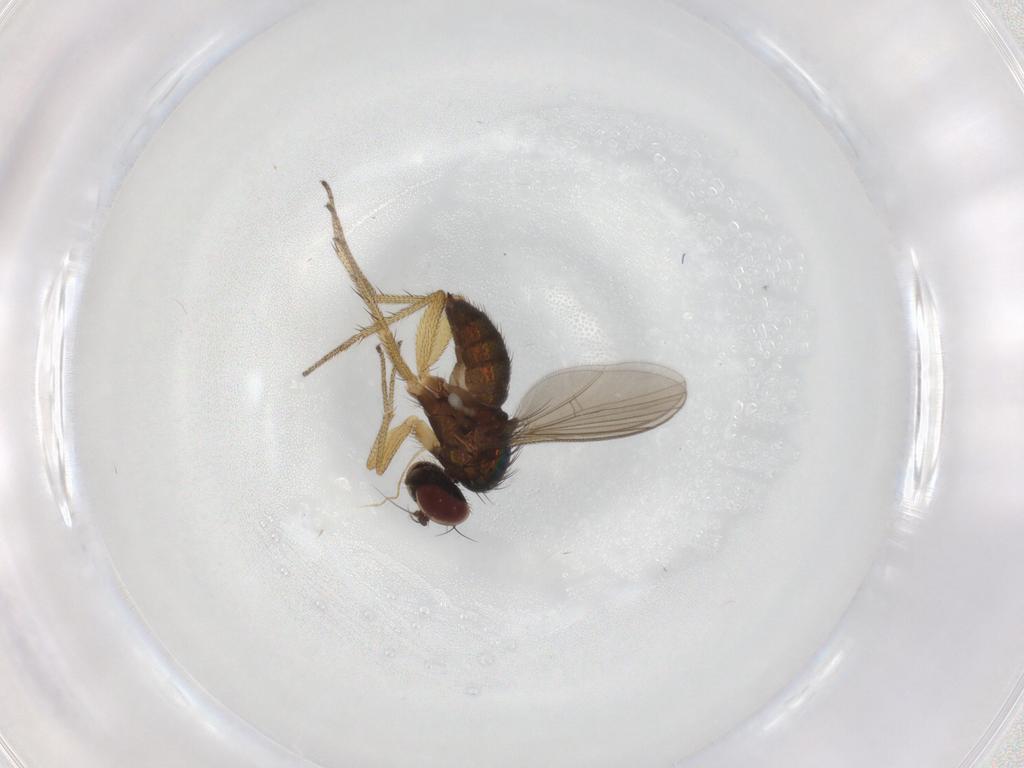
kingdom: Animalia
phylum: Arthropoda
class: Insecta
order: Diptera
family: Dolichopodidae
